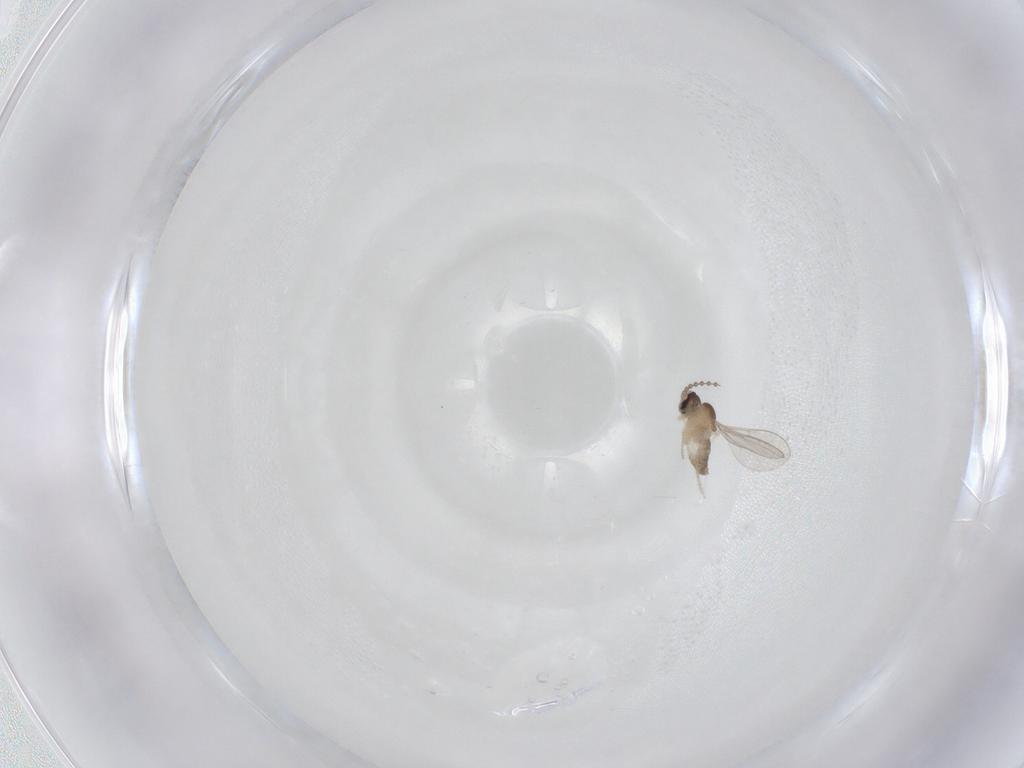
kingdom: Animalia
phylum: Arthropoda
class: Insecta
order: Diptera
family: Cecidomyiidae
